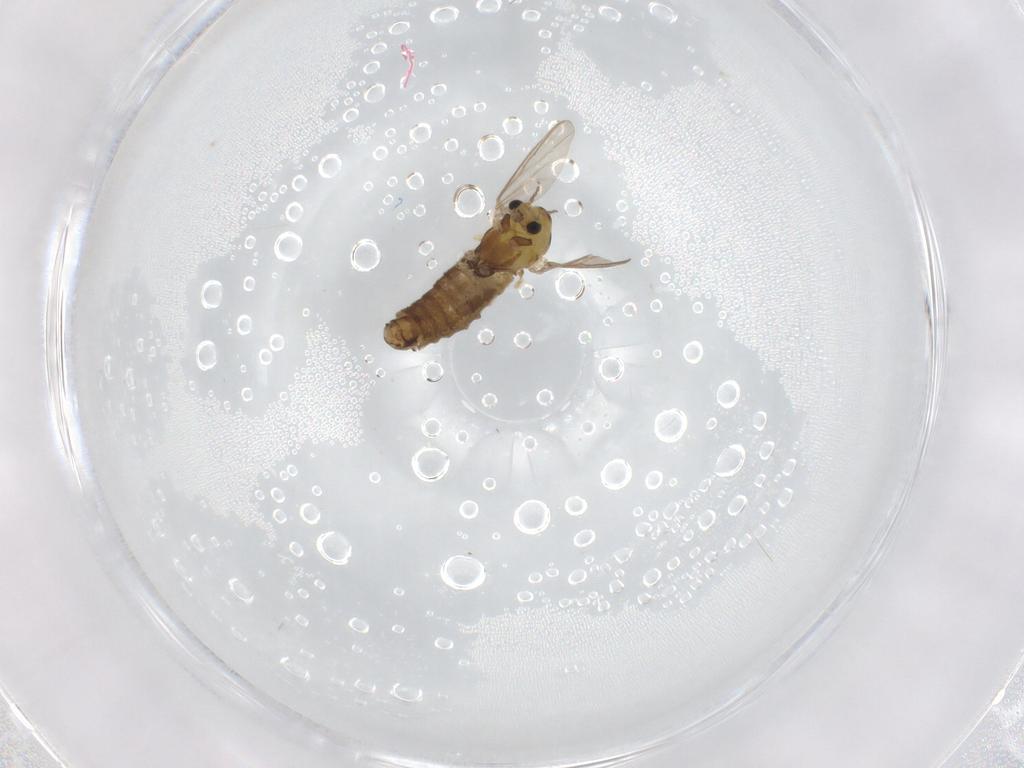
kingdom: Animalia
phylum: Arthropoda
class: Insecta
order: Diptera
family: Chironomidae
